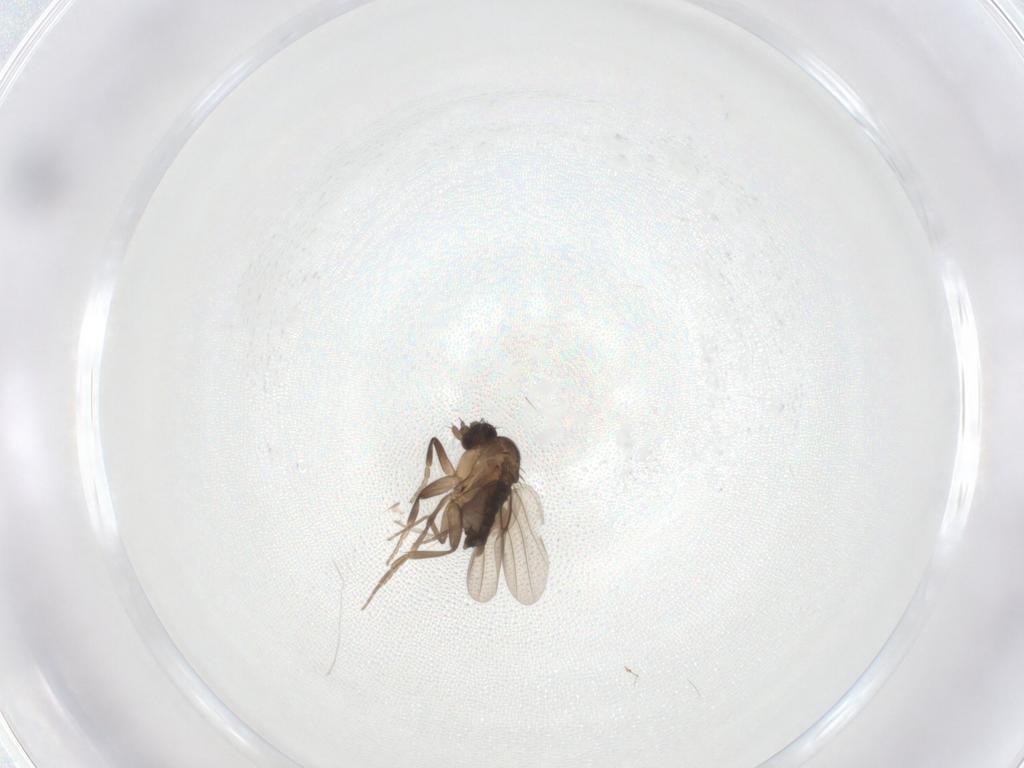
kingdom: Animalia
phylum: Arthropoda
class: Insecta
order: Diptera
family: Phoridae
